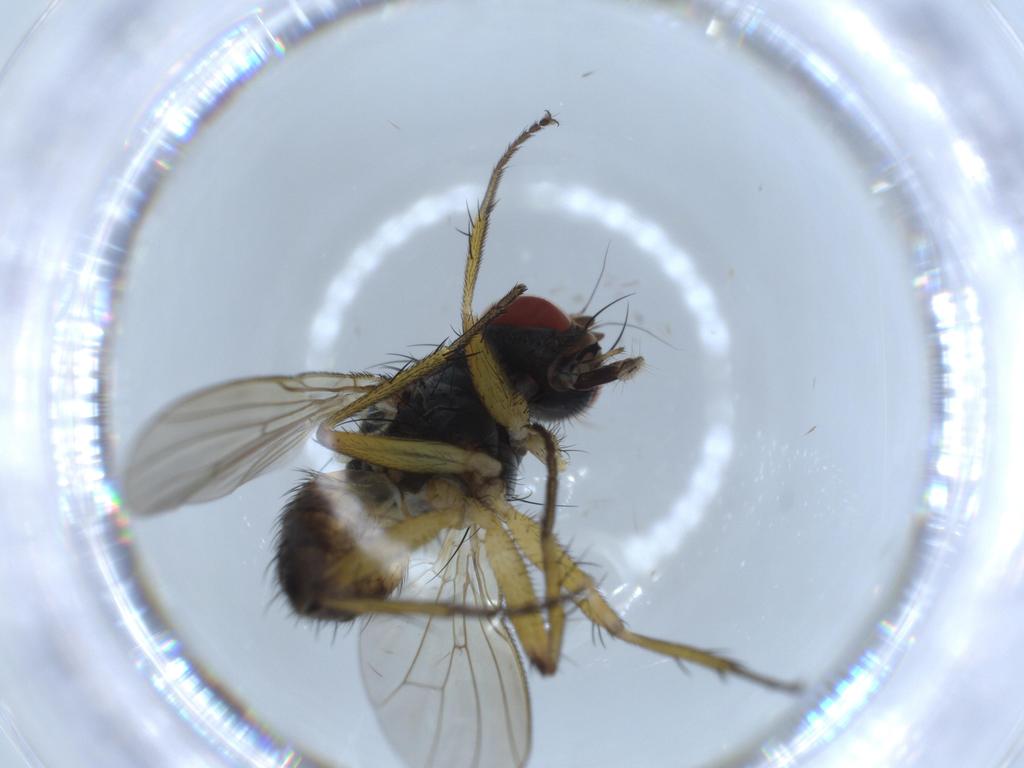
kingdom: Animalia
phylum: Arthropoda
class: Insecta
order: Diptera
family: Muscidae
